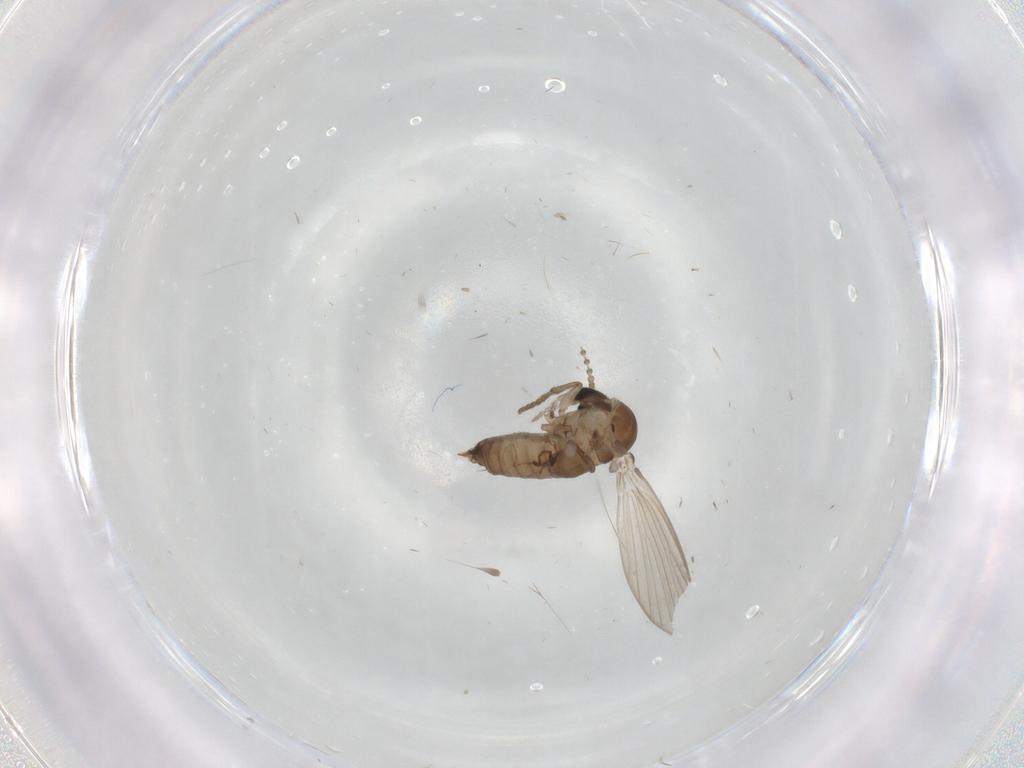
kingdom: Animalia
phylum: Arthropoda
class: Insecta
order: Diptera
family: Psychodidae
